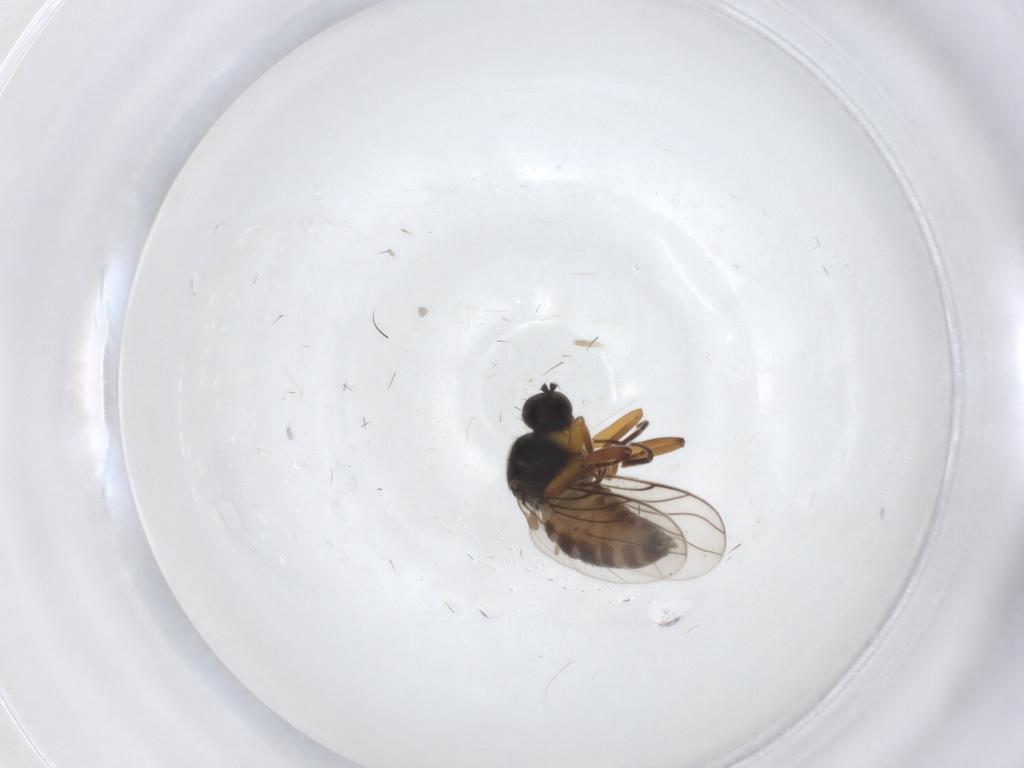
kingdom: Animalia
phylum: Arthropoda
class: Insecta
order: Diptera
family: Hybotidae
